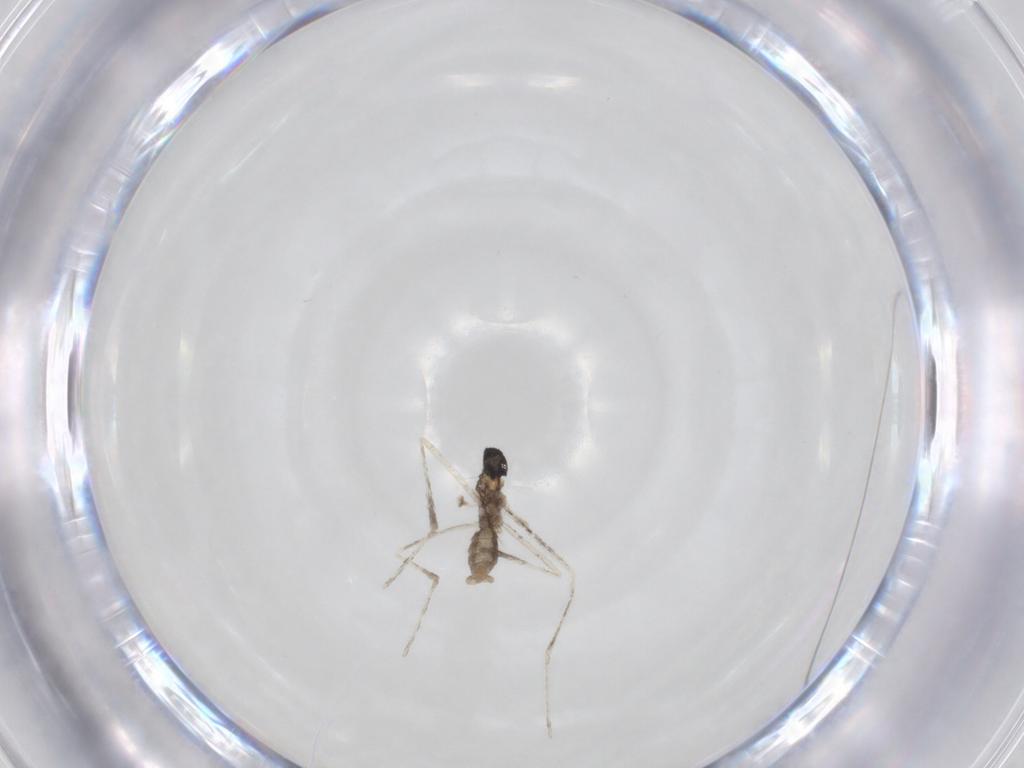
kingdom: Animalia
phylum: Arthropoda
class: Insecta
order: Diptera
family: Cecidomyiidae
